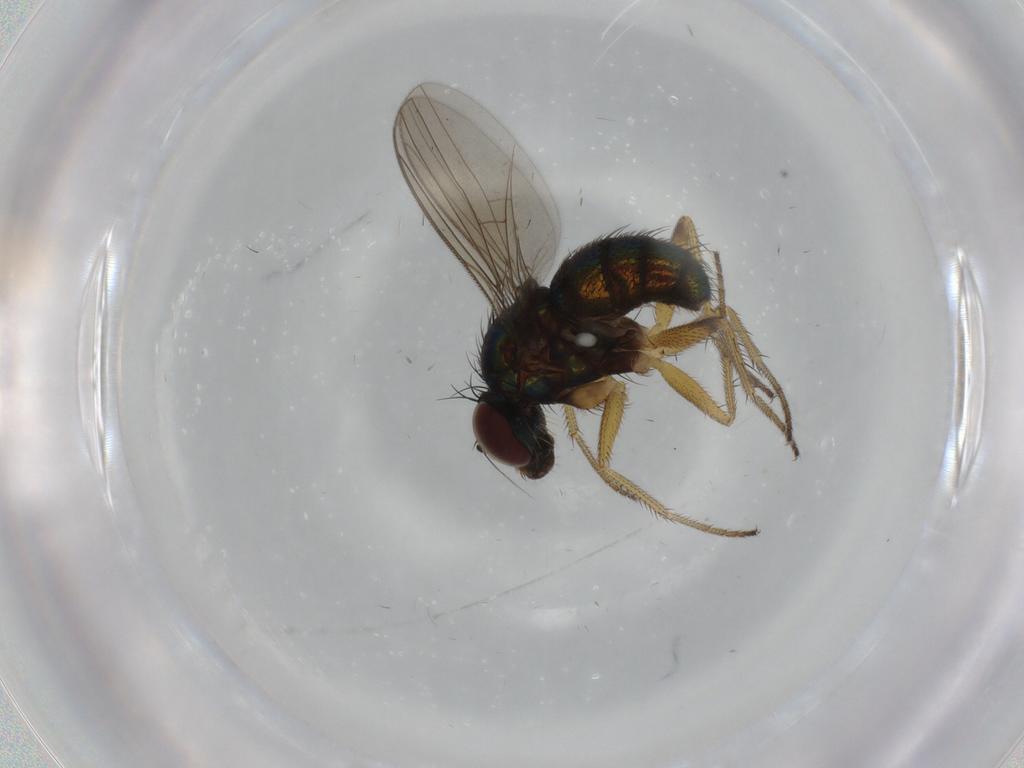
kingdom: Animalia
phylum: Arthropoda
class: Insecta
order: Diptera
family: Dolichopodidae
